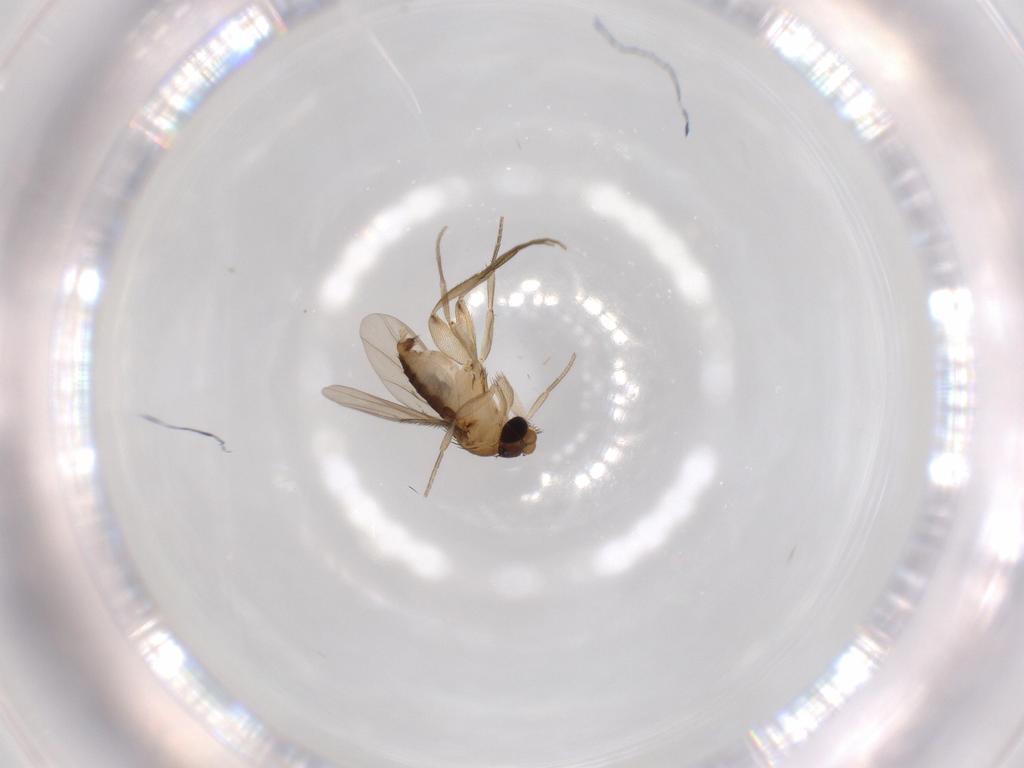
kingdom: Animalia
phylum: Arthropoda
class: Insecta
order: Diptera
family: Phoridae
